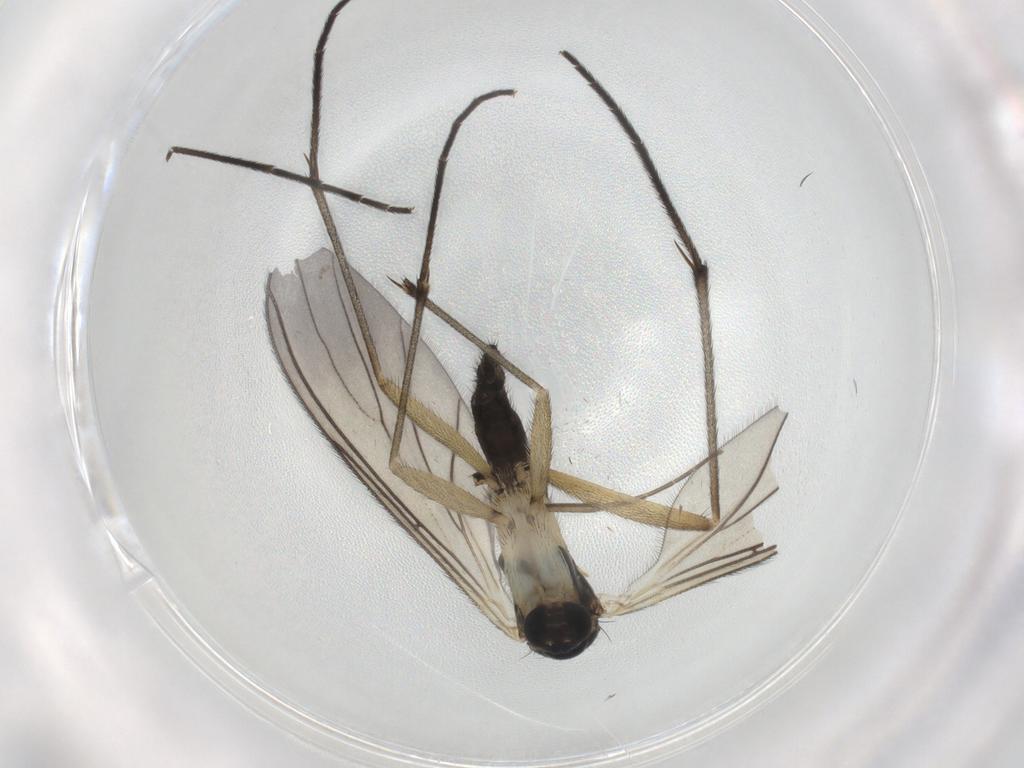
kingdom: Animalia
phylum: Arthropoda
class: Insecta
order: Diptera
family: Sciaridae
